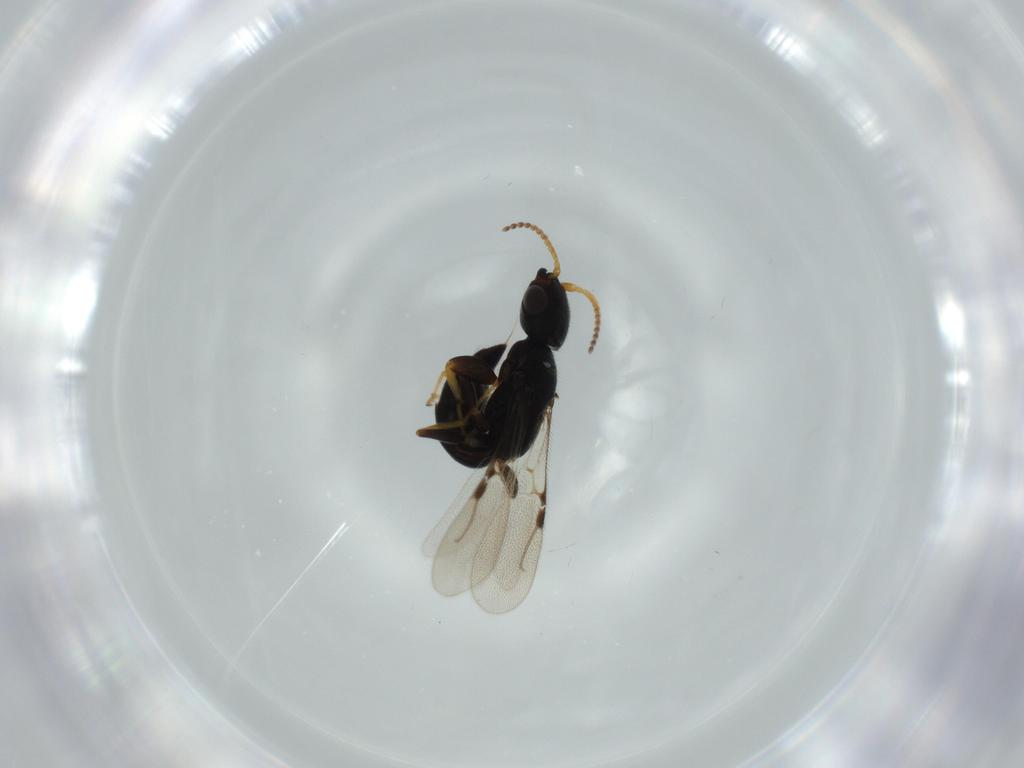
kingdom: Animalia
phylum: Arthropoda
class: Insecta
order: Hymenoptera
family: Bethylidae
